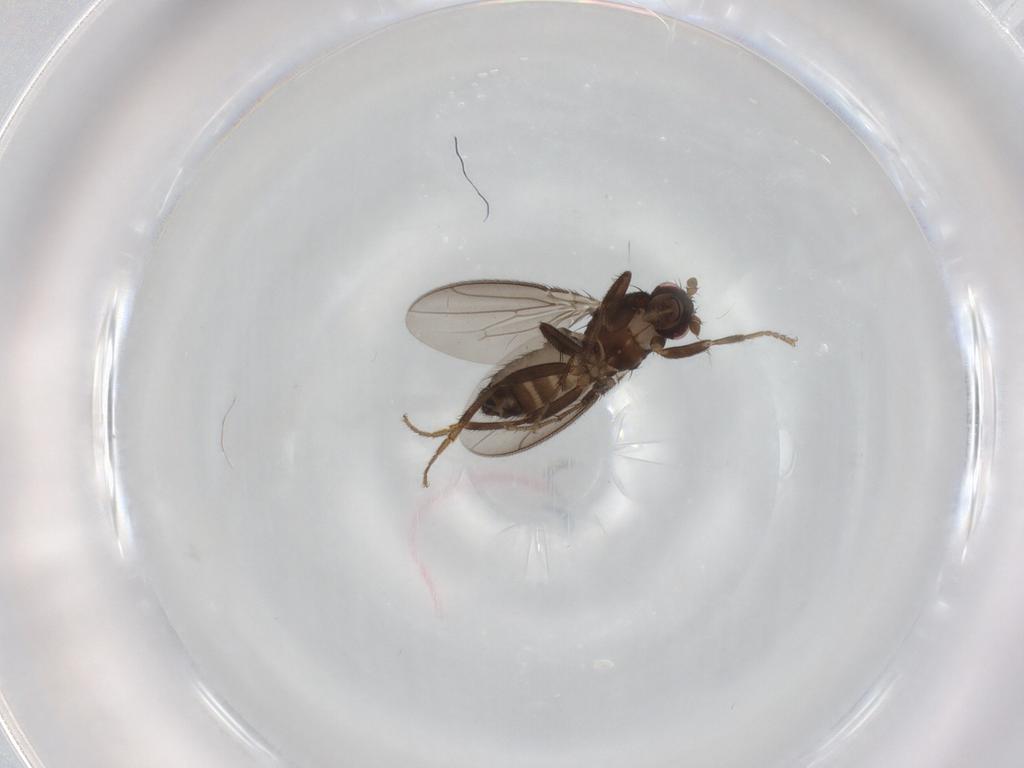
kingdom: Animalia
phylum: Arthropoda
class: Insecta
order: Diptera
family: Sphaeroceridae
